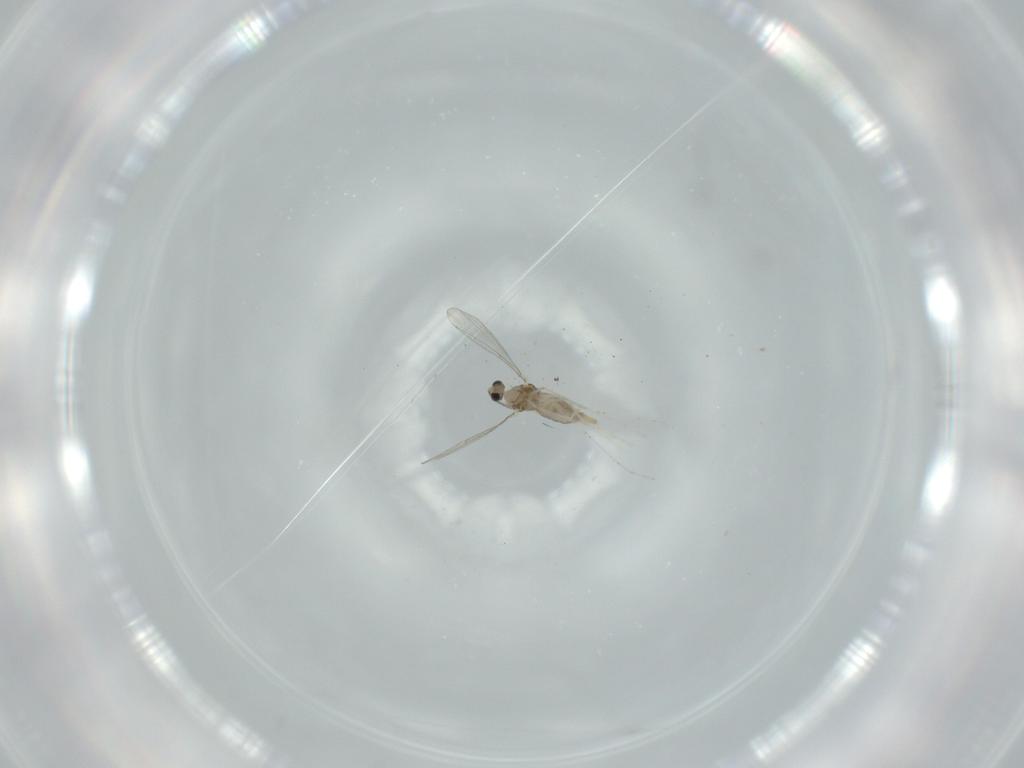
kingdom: Animalia
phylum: Arthropoda
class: Insecta
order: Diptera
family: Cecidomyiidae
